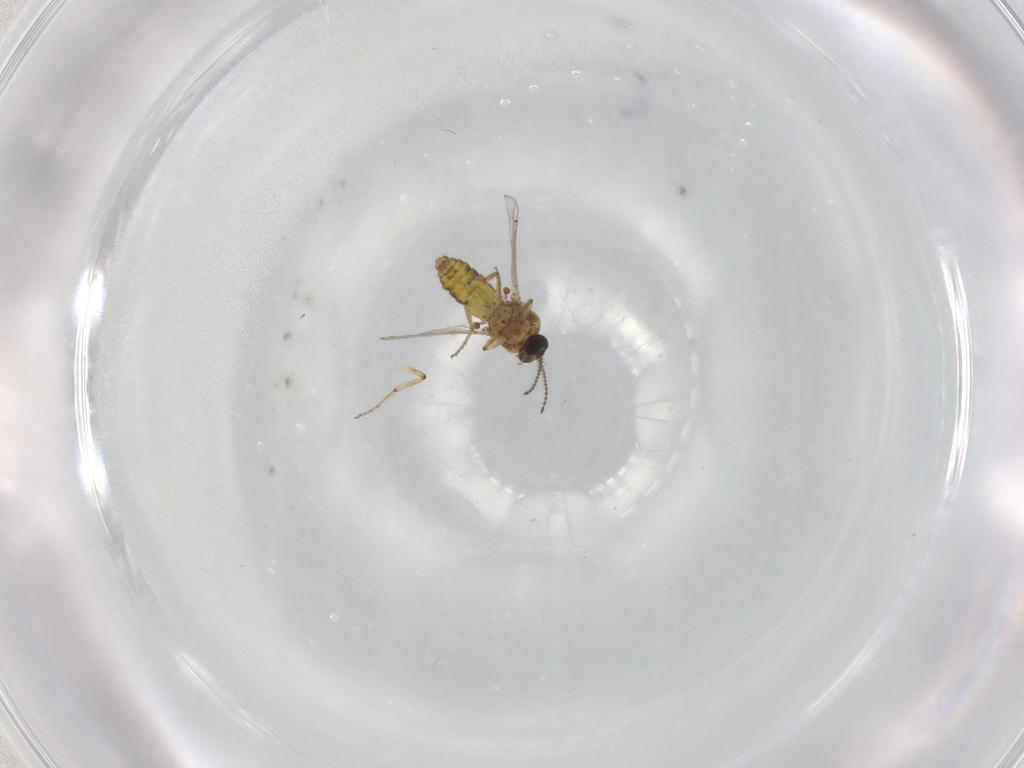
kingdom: Animalia
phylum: Arthropoda
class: Insecta
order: Diptera
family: Ceratopogonidae
